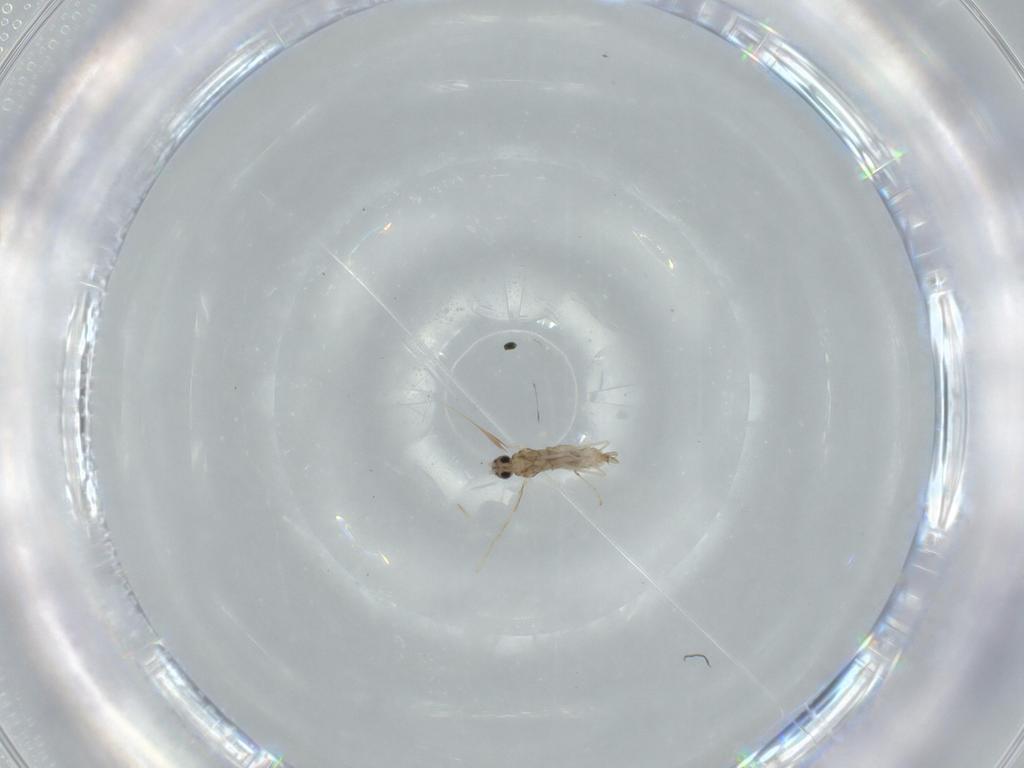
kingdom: Animalia
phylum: Arthropoda
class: Insecta
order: Diptera
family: Cecidomyiidae
